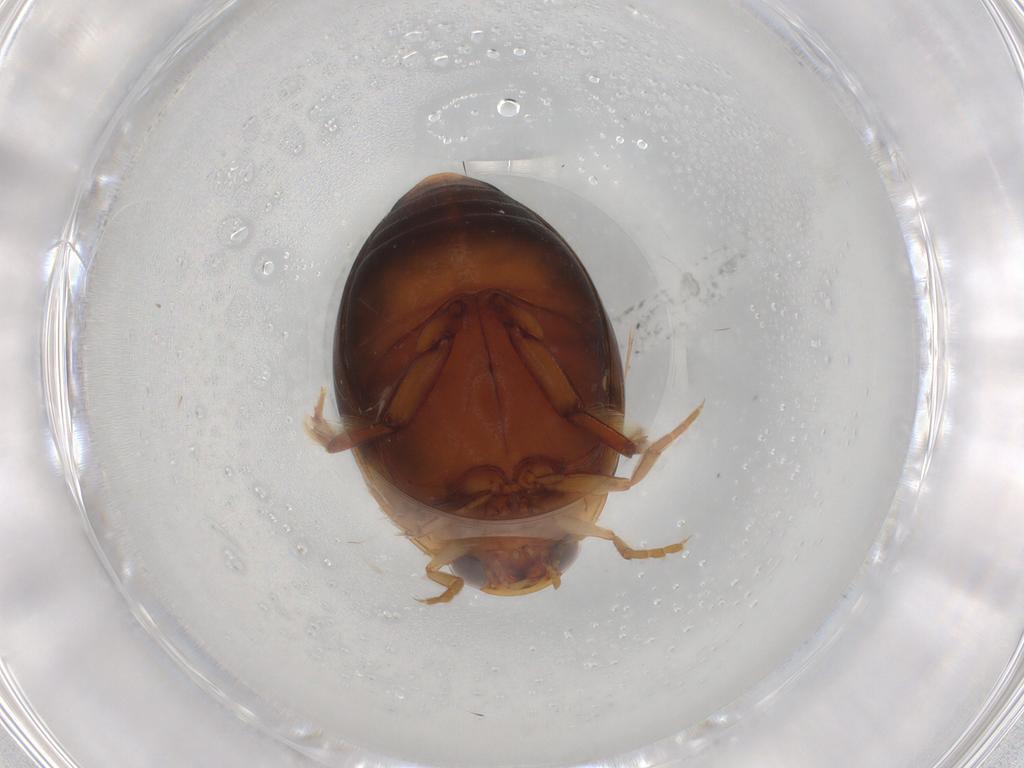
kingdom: Animalia
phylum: Arthropoda
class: Insecta
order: Coleoptera
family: Dytiscidae
